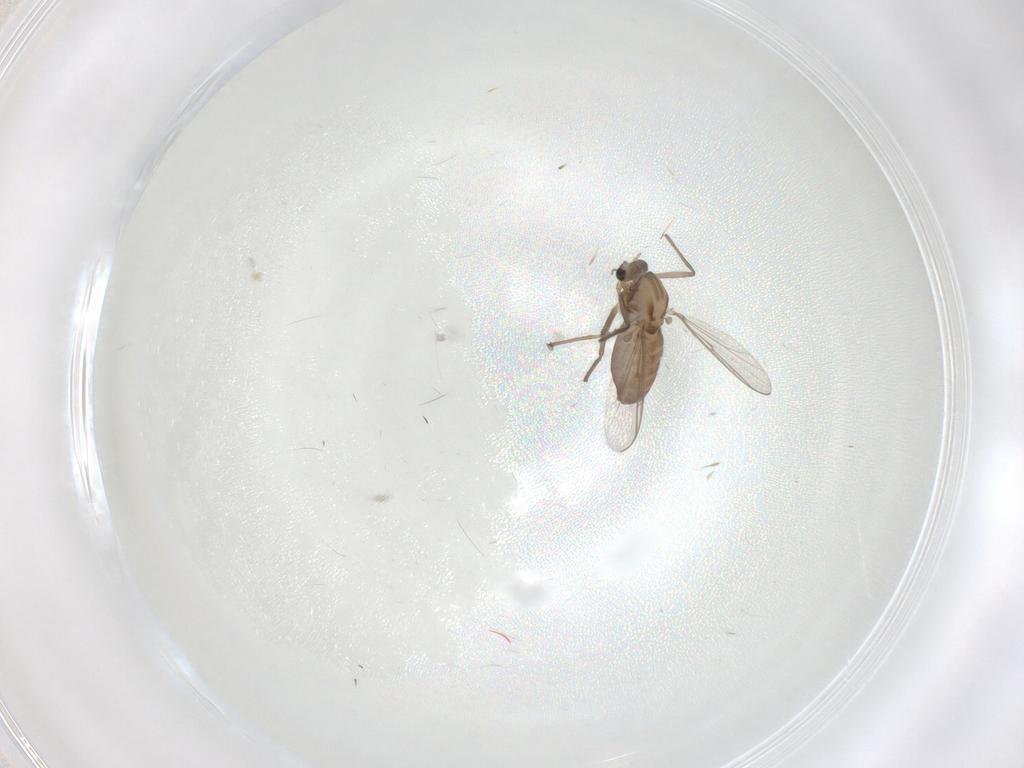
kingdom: Animalia
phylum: Arthropoda
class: Insecta
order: Diptera
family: Chironomidae
